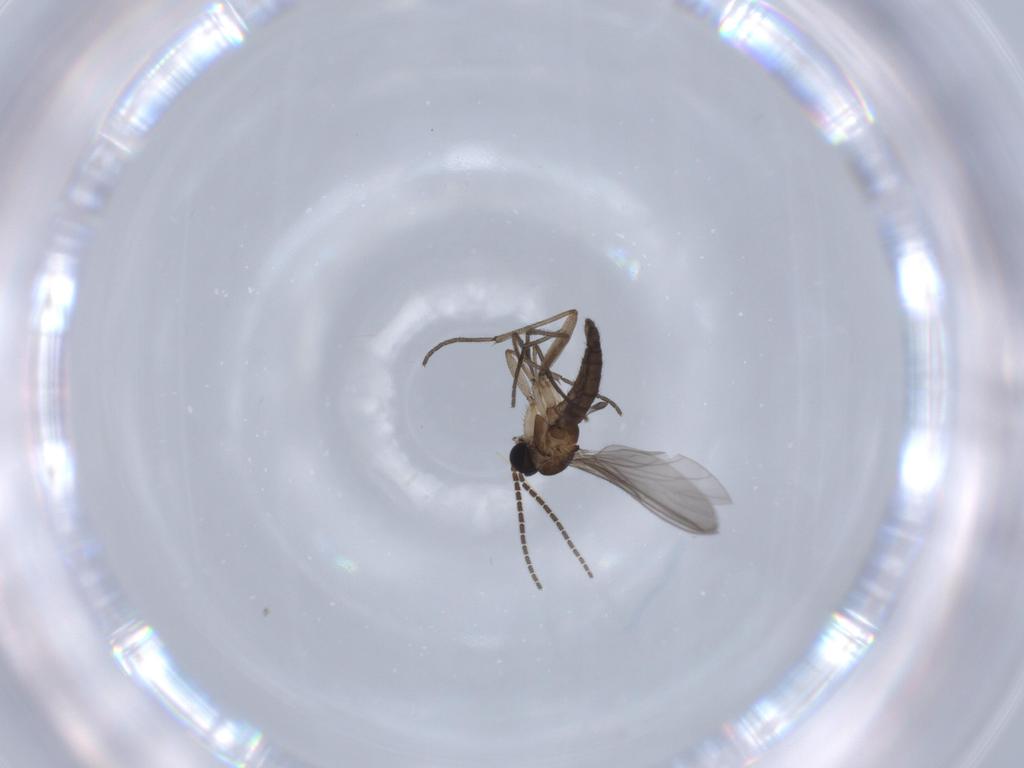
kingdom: Animalia
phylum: Arthropoda
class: Insecta
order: Diptera
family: Sciaridae
